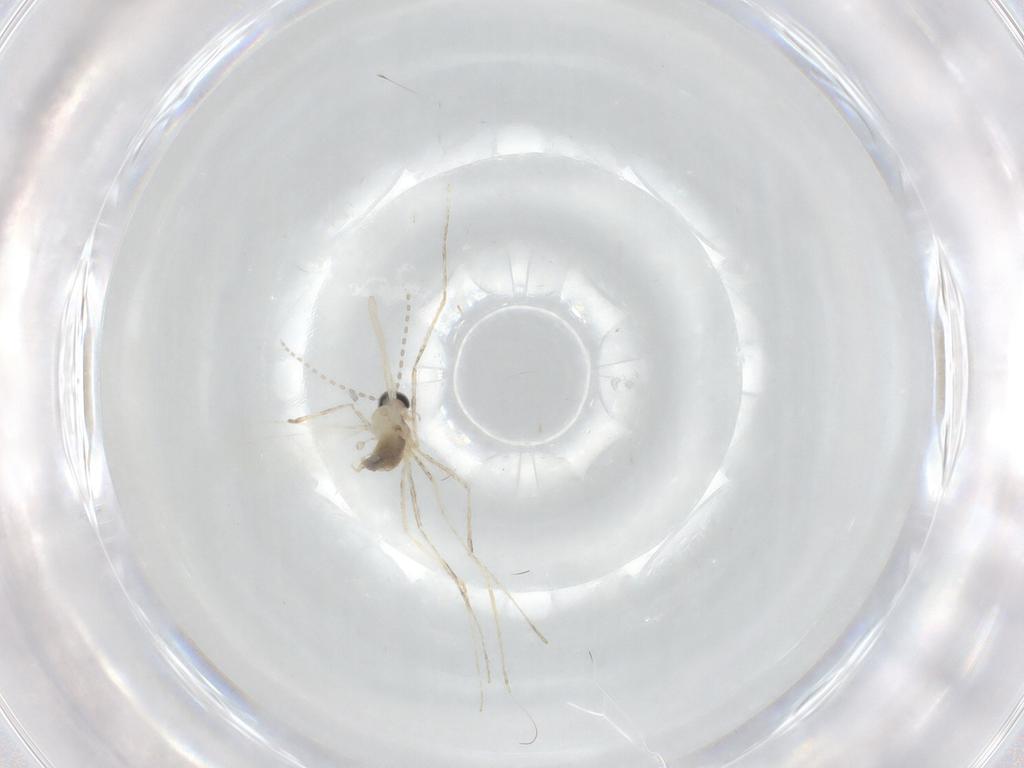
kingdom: Animalia
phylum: Arthropoda
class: Insecta
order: Diptera
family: Cecidomyiidae
